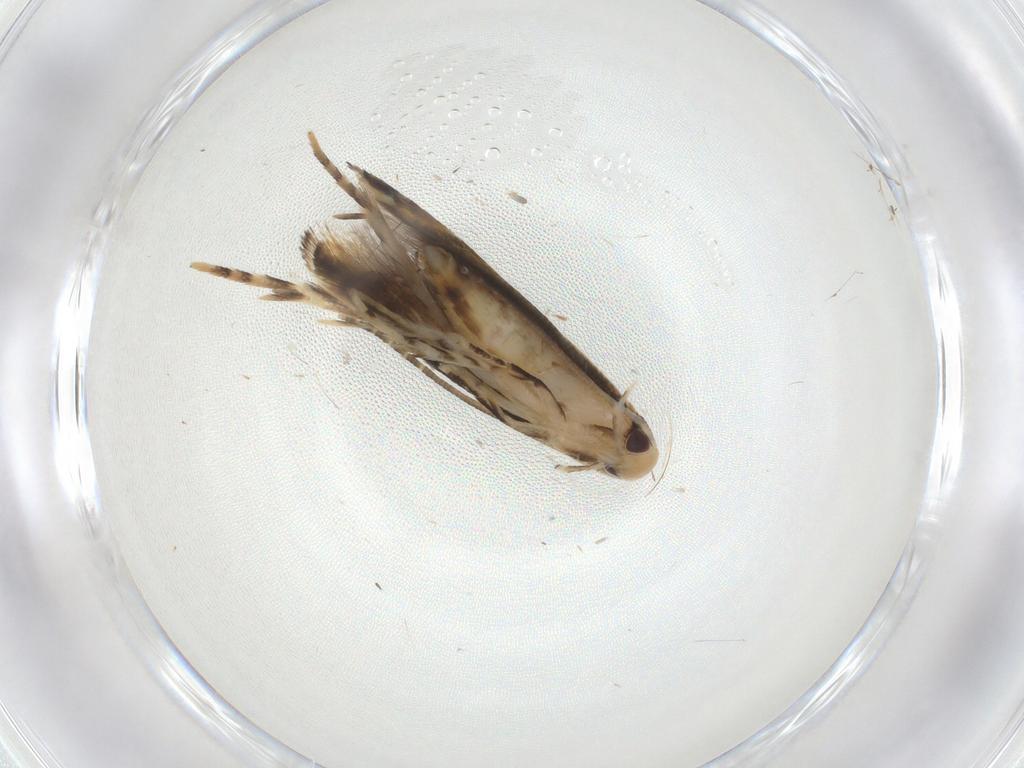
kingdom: Animalia
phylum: Arthropoda
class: Insecta
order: Lepidoptera
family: Momphidae
